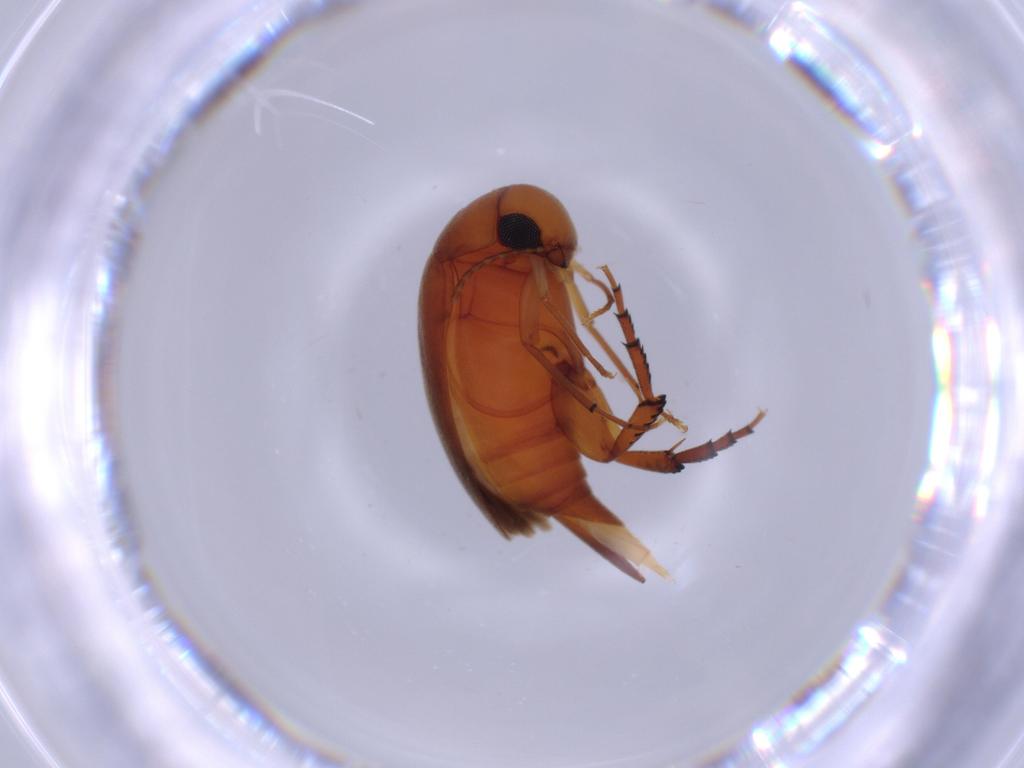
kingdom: Animalia
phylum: Arthropoda
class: Insecta
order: Coleoptera
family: Mordellidae
